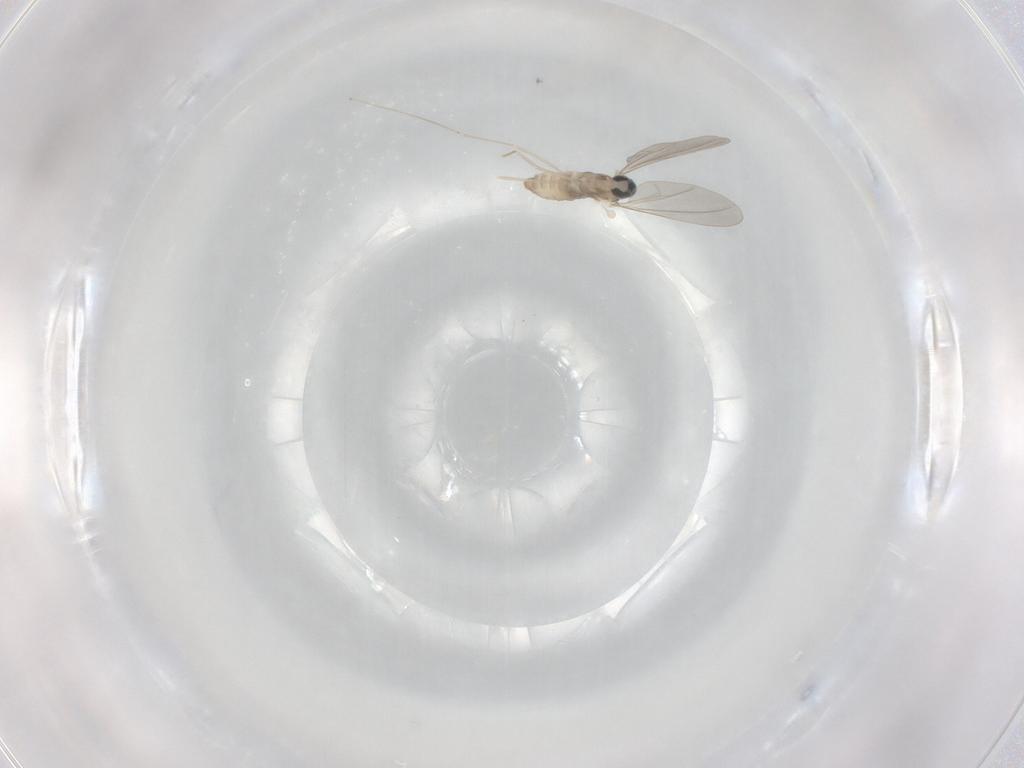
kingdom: Animalia
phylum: Arthropoda
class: Insecta
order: Diptera
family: Cecidomyiidae
